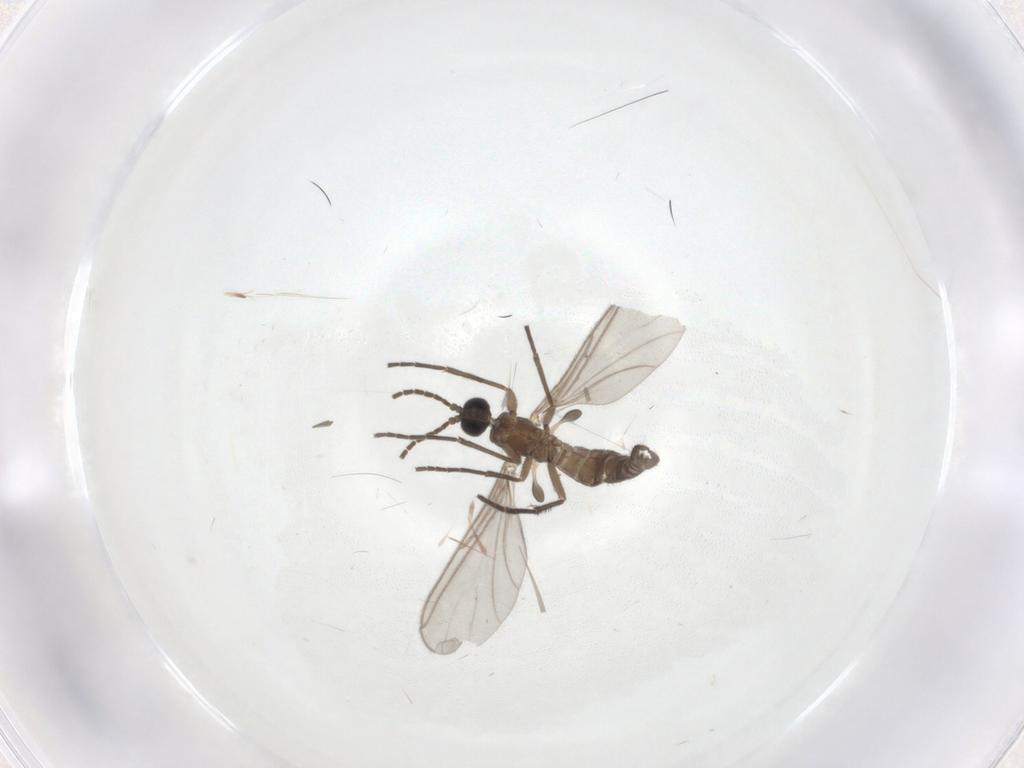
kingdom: Animalia
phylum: Arthropoda
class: Insecta
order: Diptera
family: Sciaridae
